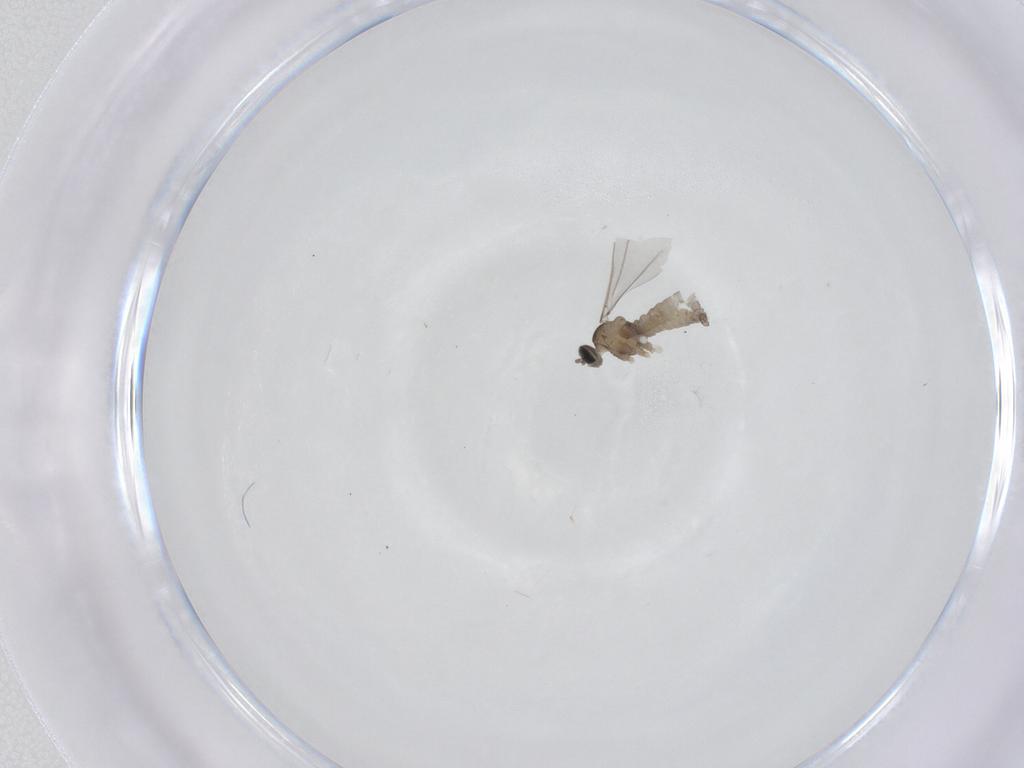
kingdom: Animalia
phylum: Arthropoda
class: Insecta
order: Diptera
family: Cecidomyiidae
